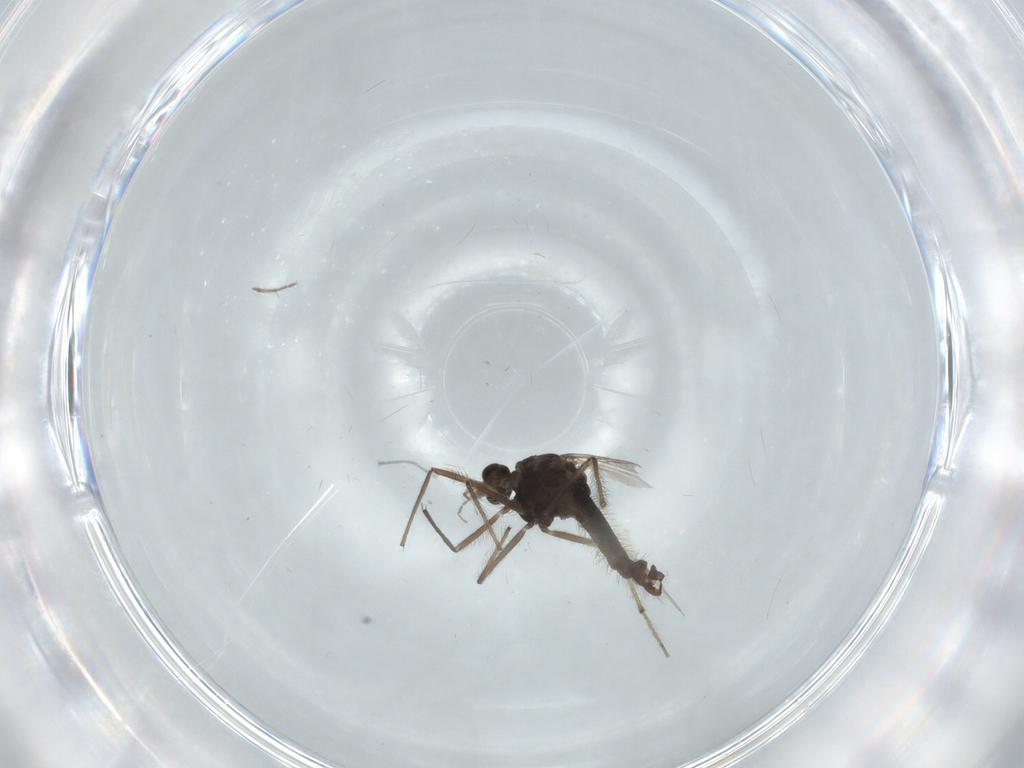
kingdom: Animalia
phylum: Arthropoda
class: Insecta
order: Diptera
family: Chironomidae
